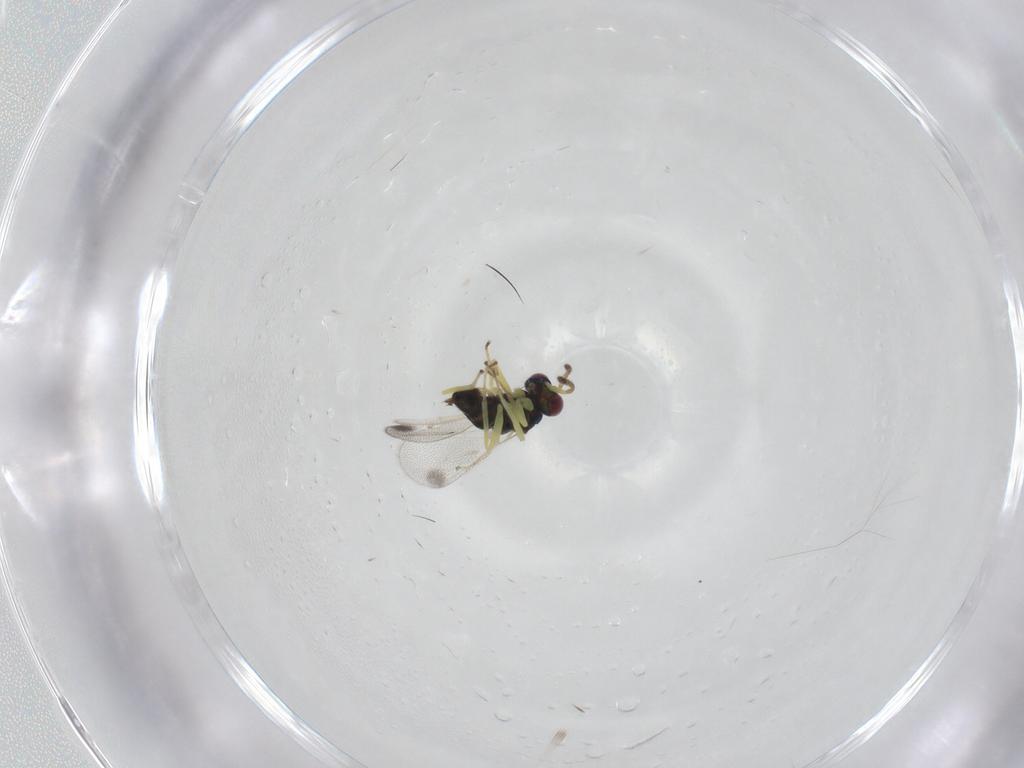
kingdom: Animalia
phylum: Arthropoda
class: Insecta
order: Hymenoptera
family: Eulophidae
